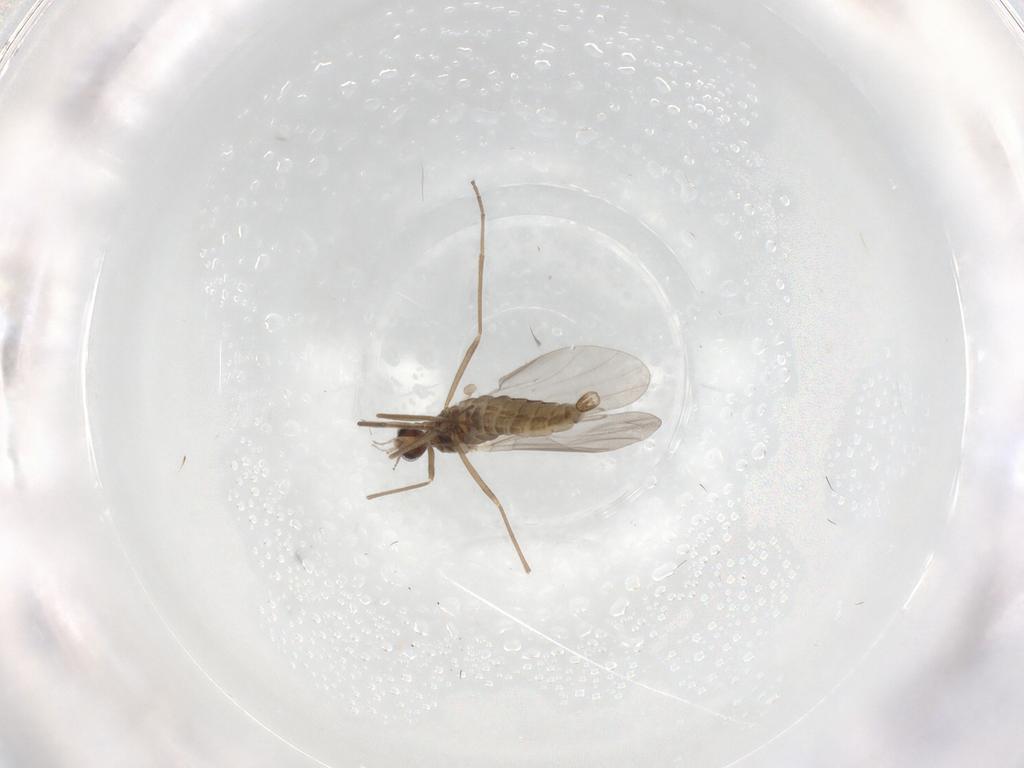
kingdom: Animalia
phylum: Arthropoda
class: Insecta
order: Diptera
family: Cecidomyiidae
